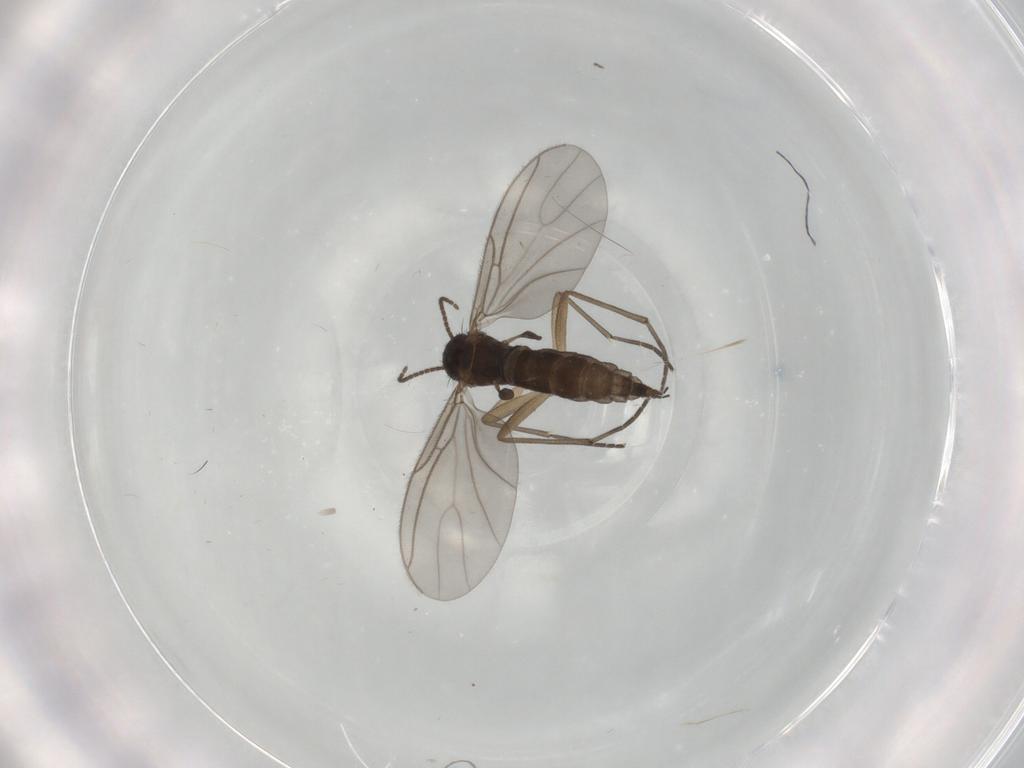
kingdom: Animalia
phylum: Arthropoda
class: Insecta
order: Diptera
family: Sciaridae
